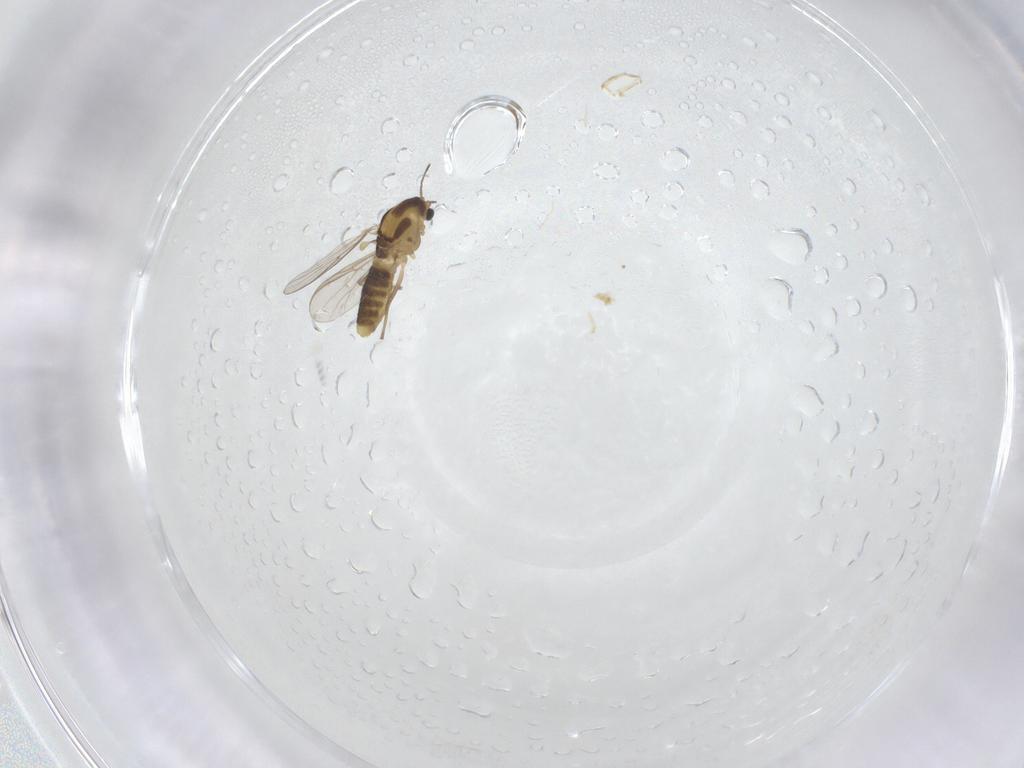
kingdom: Animalia
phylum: Arthropoda
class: Insecta
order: Diptera
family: Chironomidae
